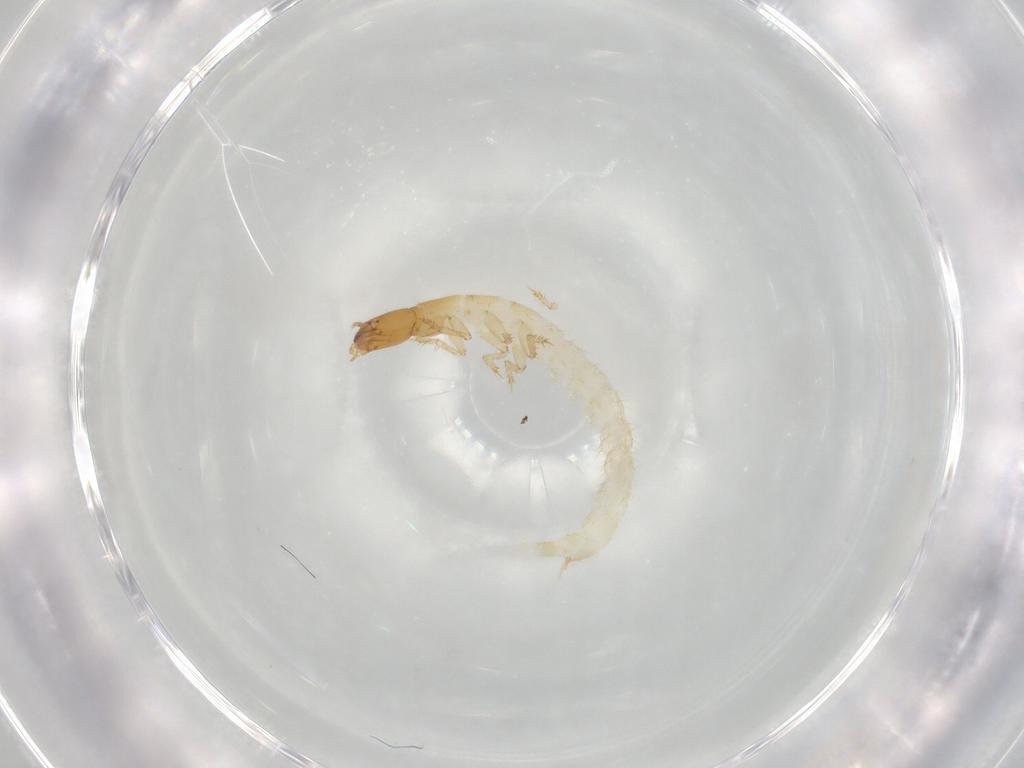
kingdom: Animalia
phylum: Arthropoda
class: Insecta
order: Coleoptera
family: Staphylinidae
